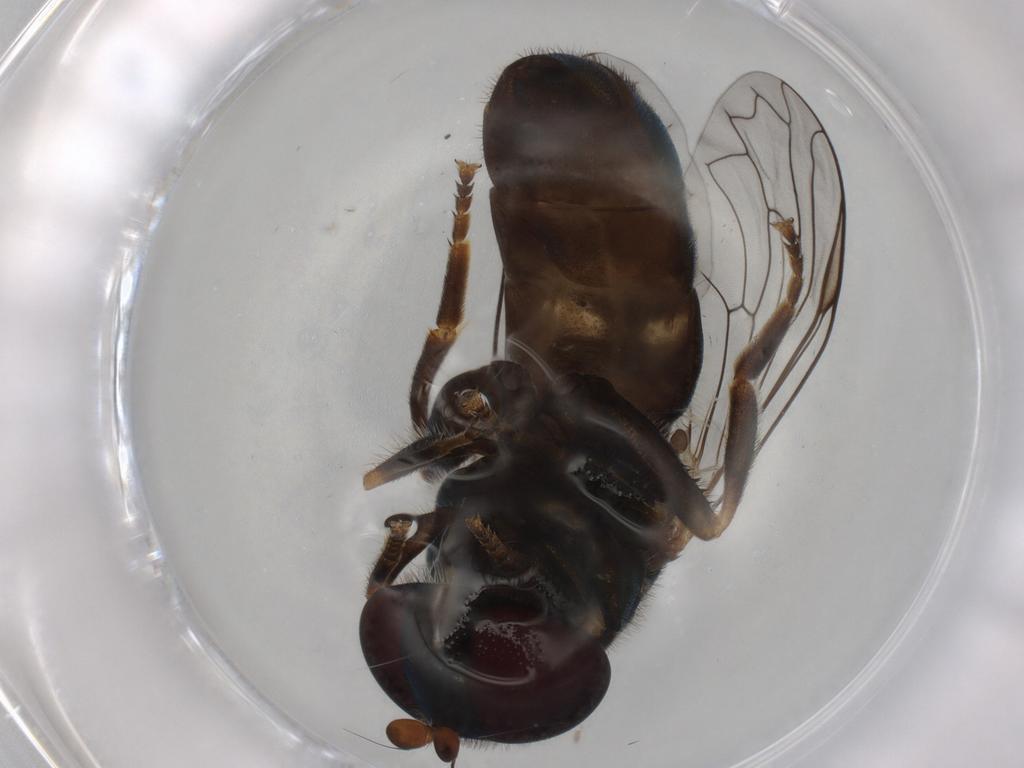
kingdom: Animalia
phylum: Arthropoda
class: Insecta
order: Diptera
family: Syrphidae
